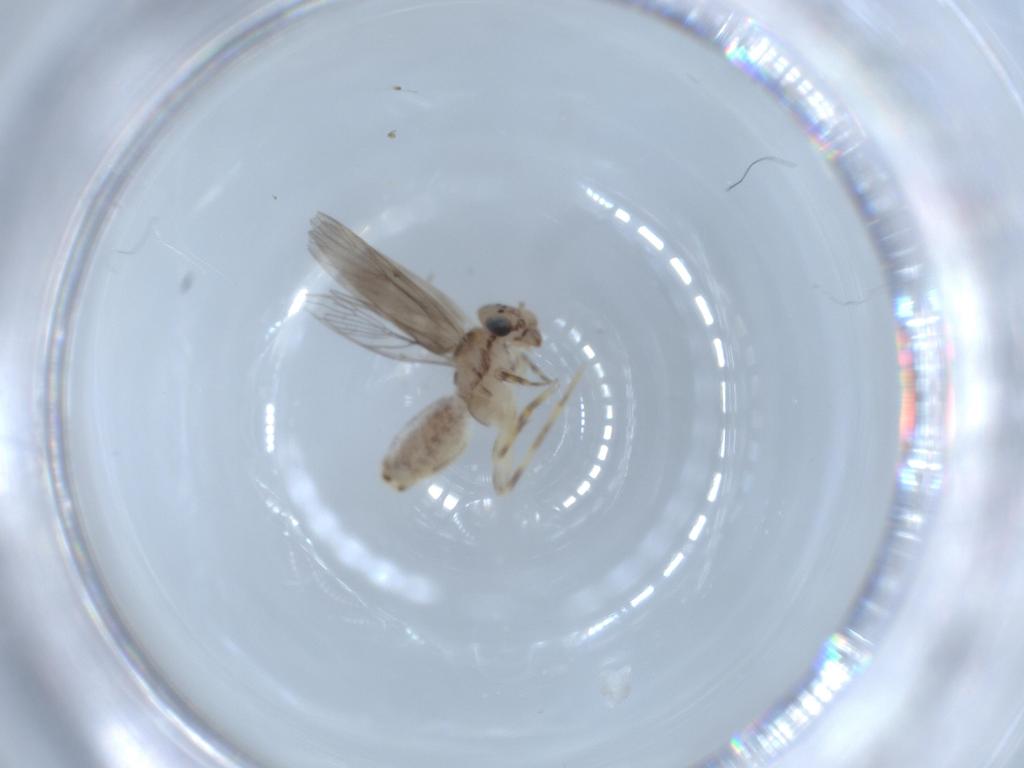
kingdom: Animalia
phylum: Arthropoda
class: Insecta
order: Psocodea
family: Lepidopsocidae
